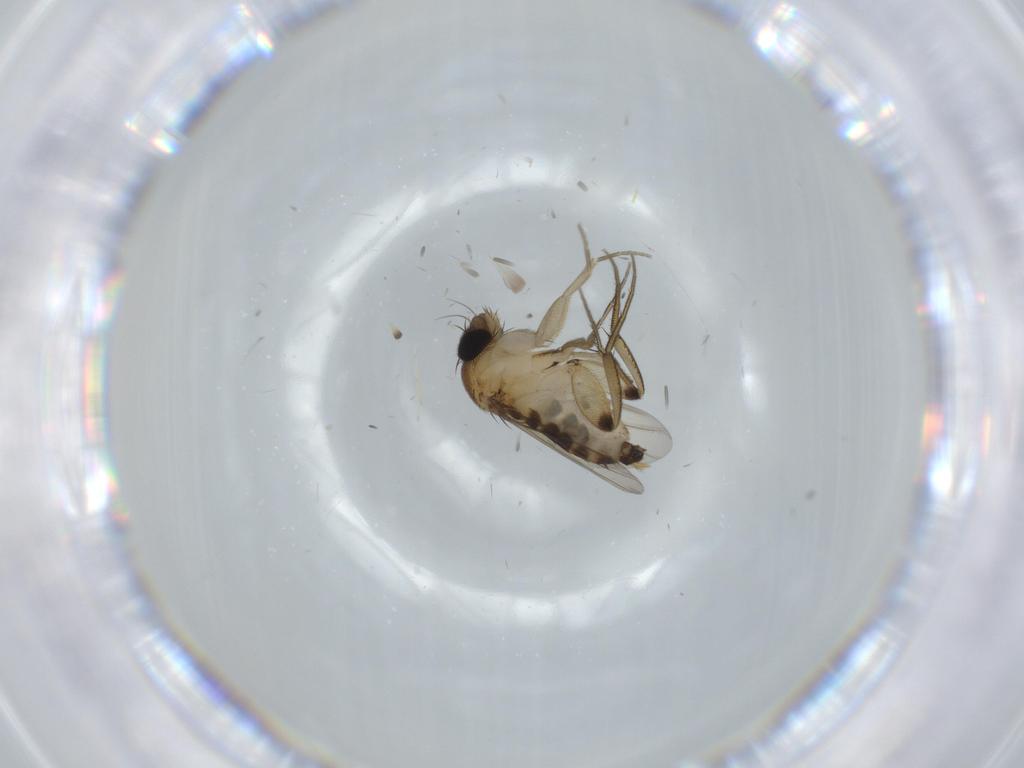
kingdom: Animalia
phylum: Arthropoda
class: Insecta
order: Diptera
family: Phoridae
